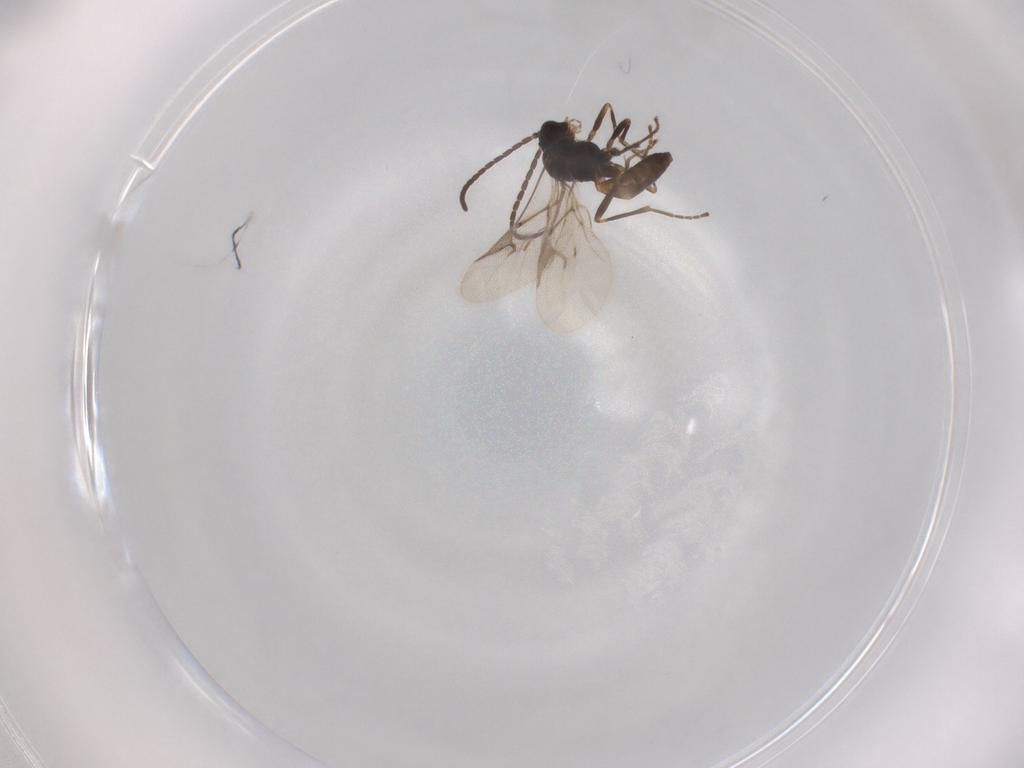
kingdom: Animalia
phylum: Arthropoda
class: Insecta
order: Hymenoptera
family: Braconidae
